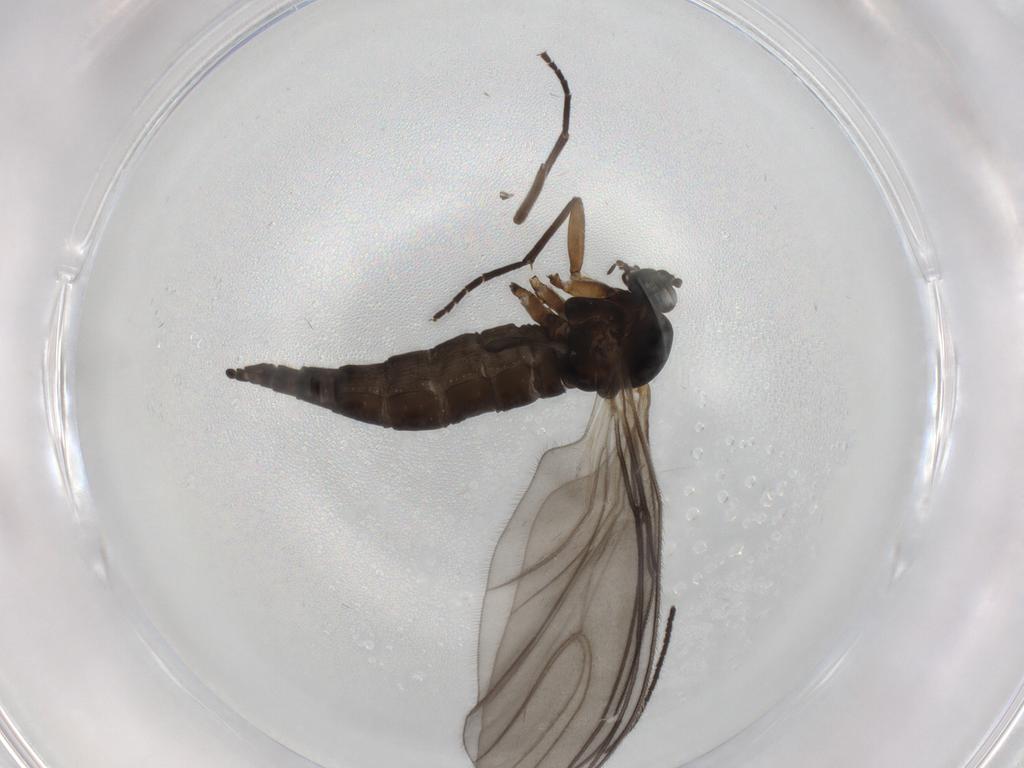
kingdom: Animalia
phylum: Arthropoda
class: Insecta
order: Diptera
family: Sciaridae
